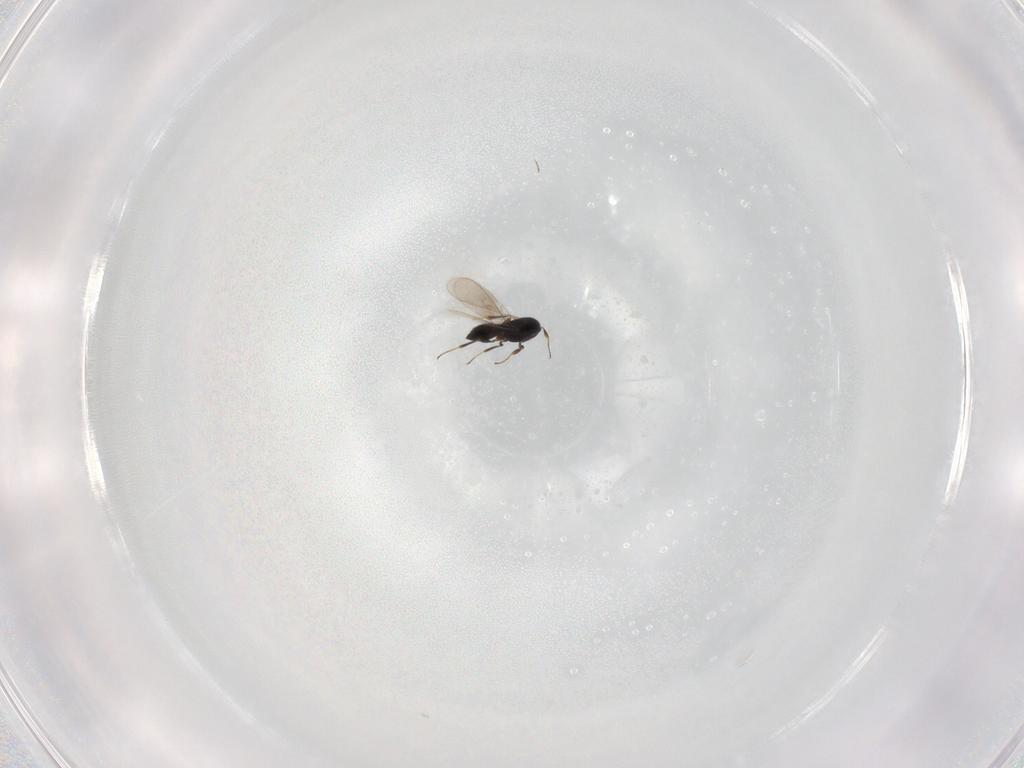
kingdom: Animalia
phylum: Arthropoda
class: Insecta
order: Hymenoptera
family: Scelionidae
